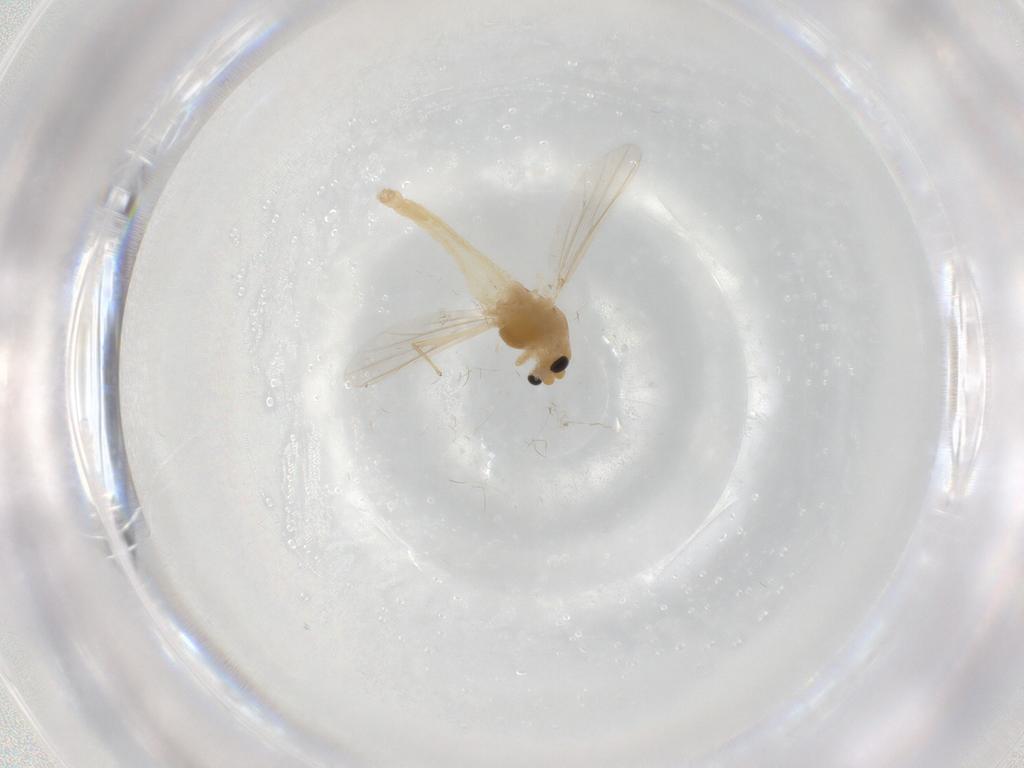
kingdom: Animalia
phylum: Arthropoda
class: Insecta
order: Diptera
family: Chironomidae
